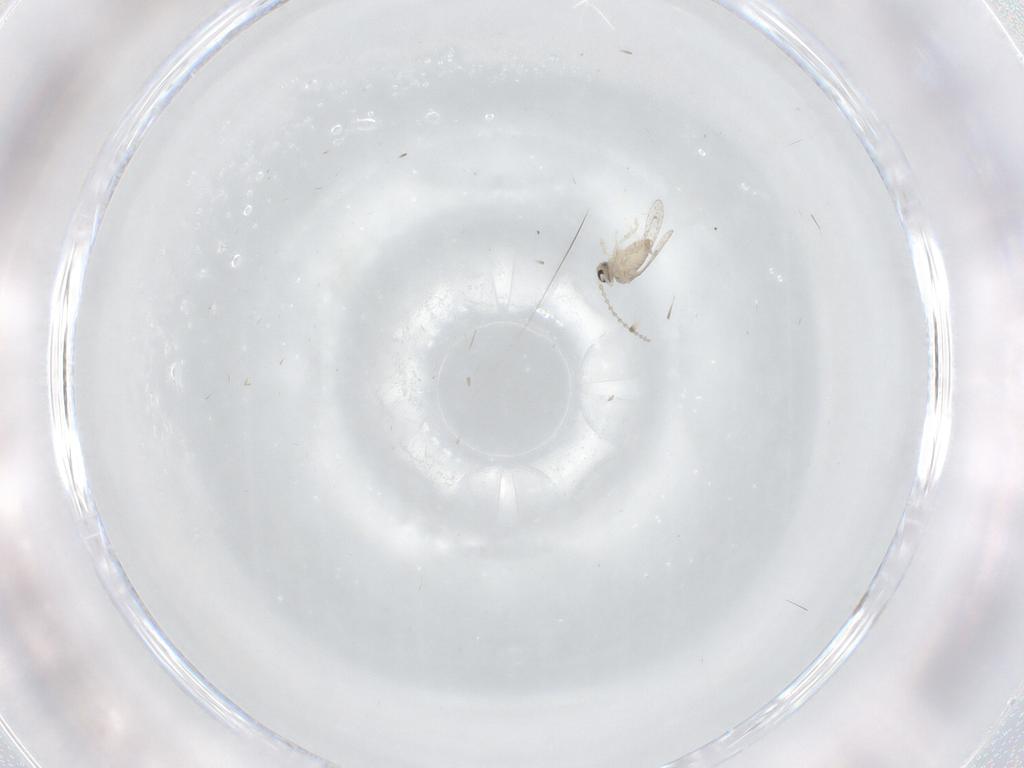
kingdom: Animalia
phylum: Arthropoda
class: Insecta
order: Diptera
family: Cecidomyiidae
